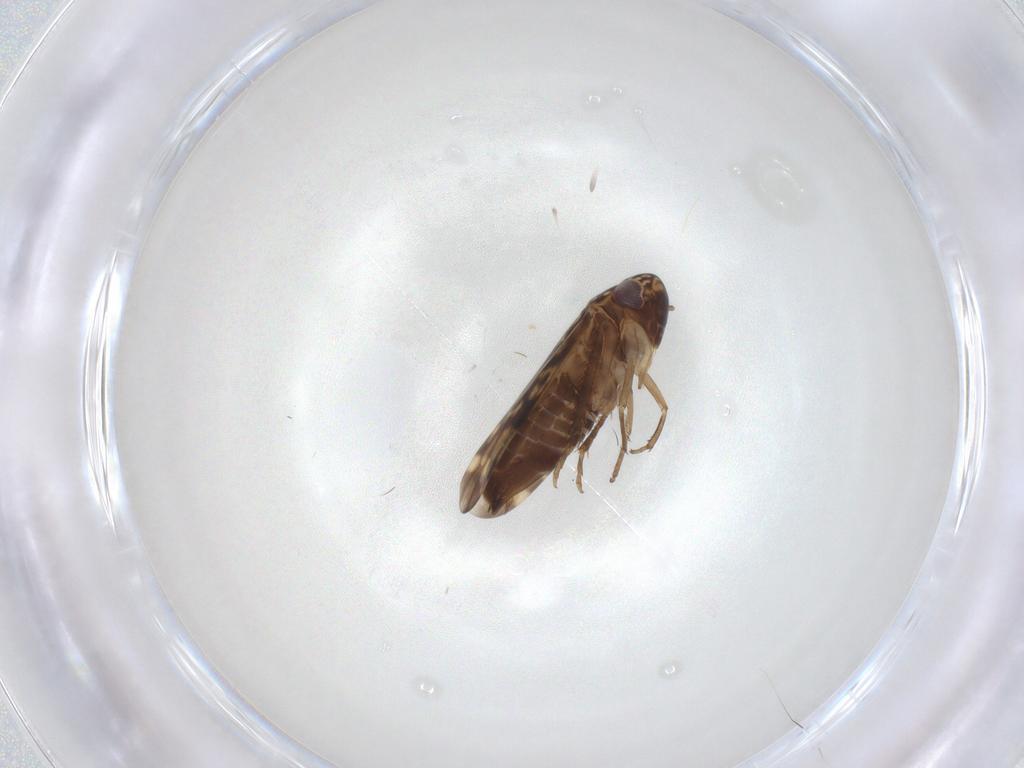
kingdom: Animalia
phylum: Arthropoda
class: Insecta
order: Hemiptera
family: Cicadellidae
